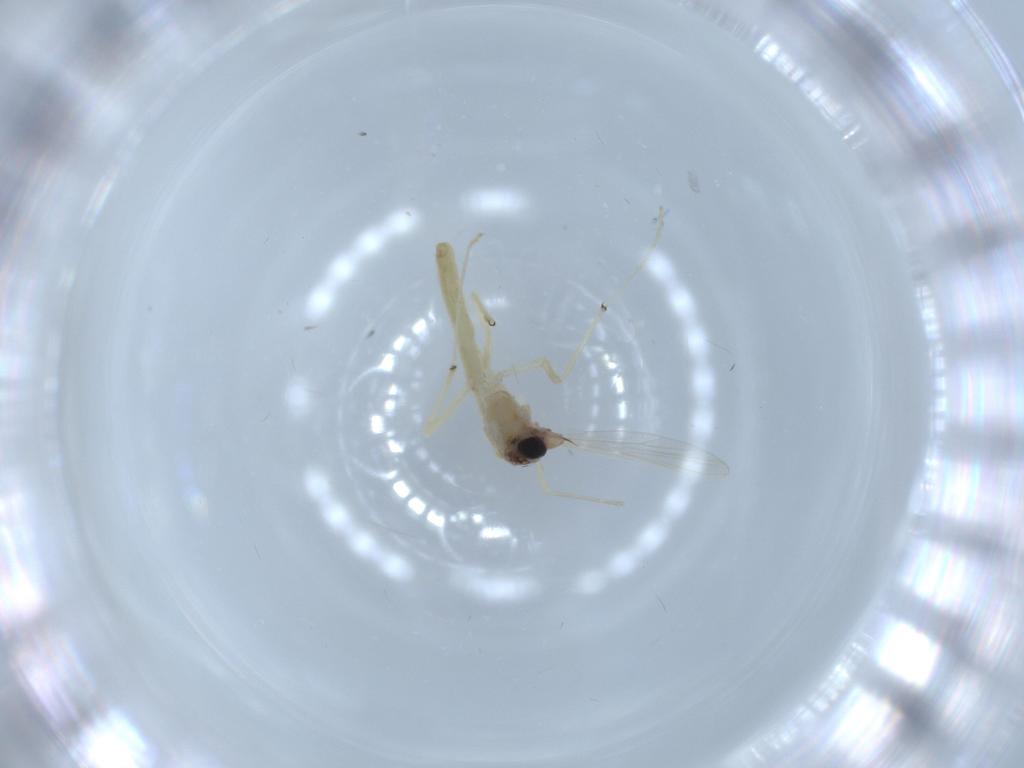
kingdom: Animalia
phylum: Arthropoda
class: Insecta
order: Diptera
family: Chironomidae
